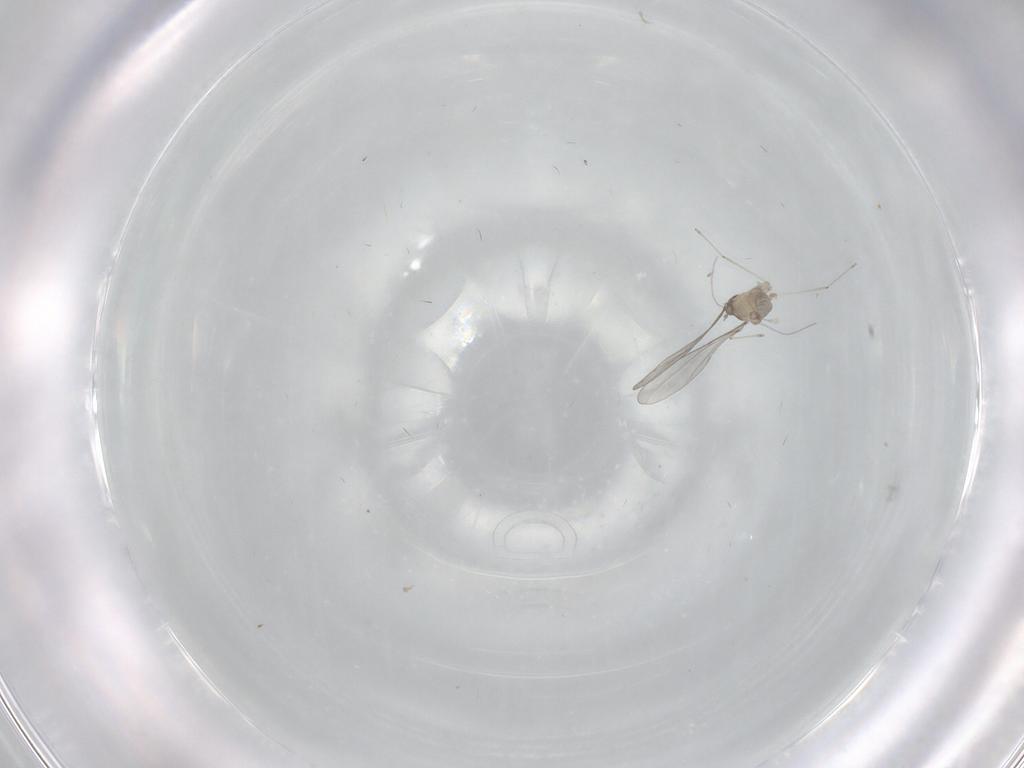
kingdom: Animalia
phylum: Arthropoda
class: Insecta
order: Diptera
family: Cecidomyiidae
